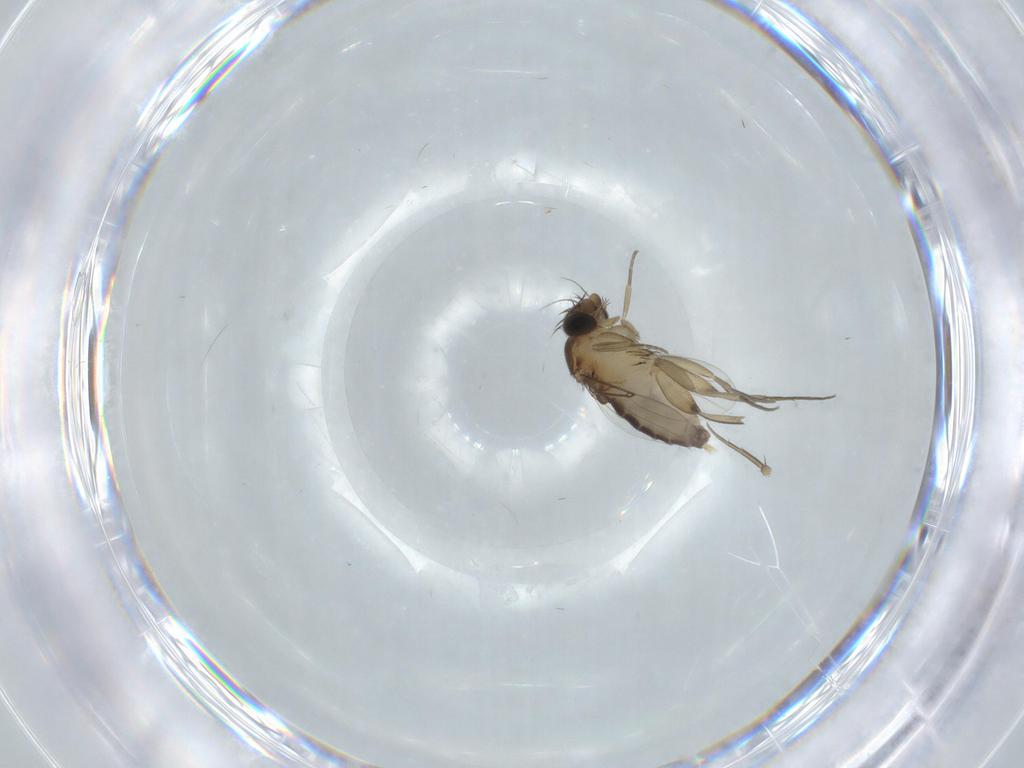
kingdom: Animalia
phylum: Arthropoda
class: Insecta
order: Diptera
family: Phoridae
